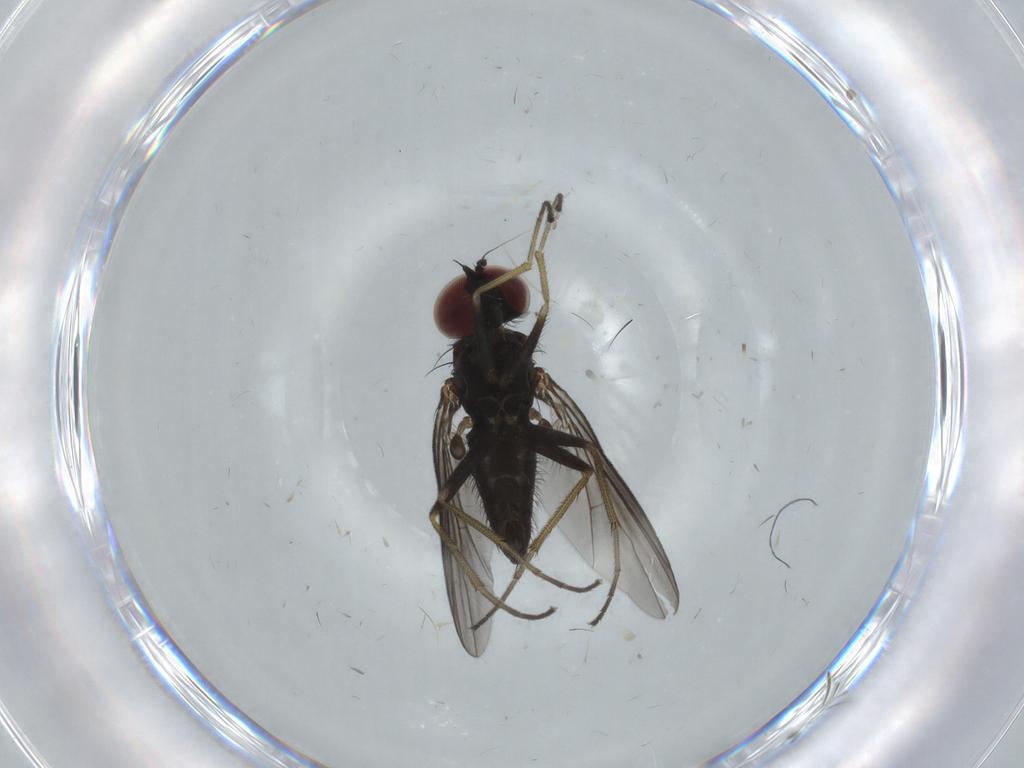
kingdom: Animalia
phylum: Arthropoda
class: Insecta
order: Diptera
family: Dolichopodidae
